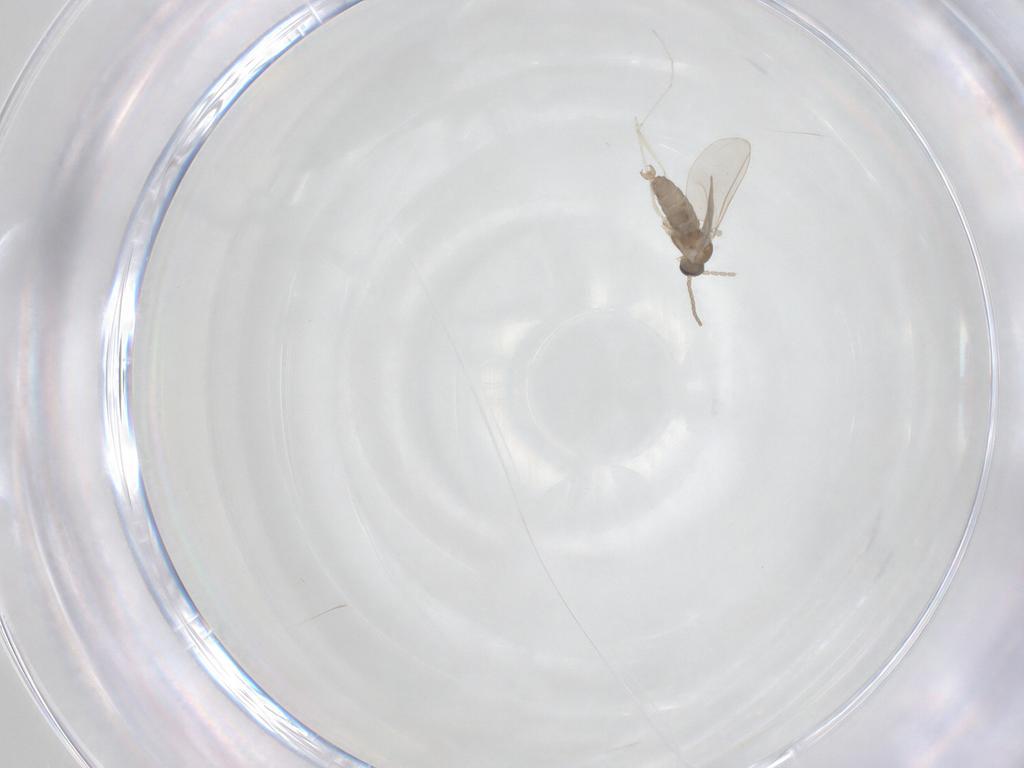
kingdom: Animalia
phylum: Arthropoda
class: Insecta
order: Diptera
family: Cecidomyiidae
